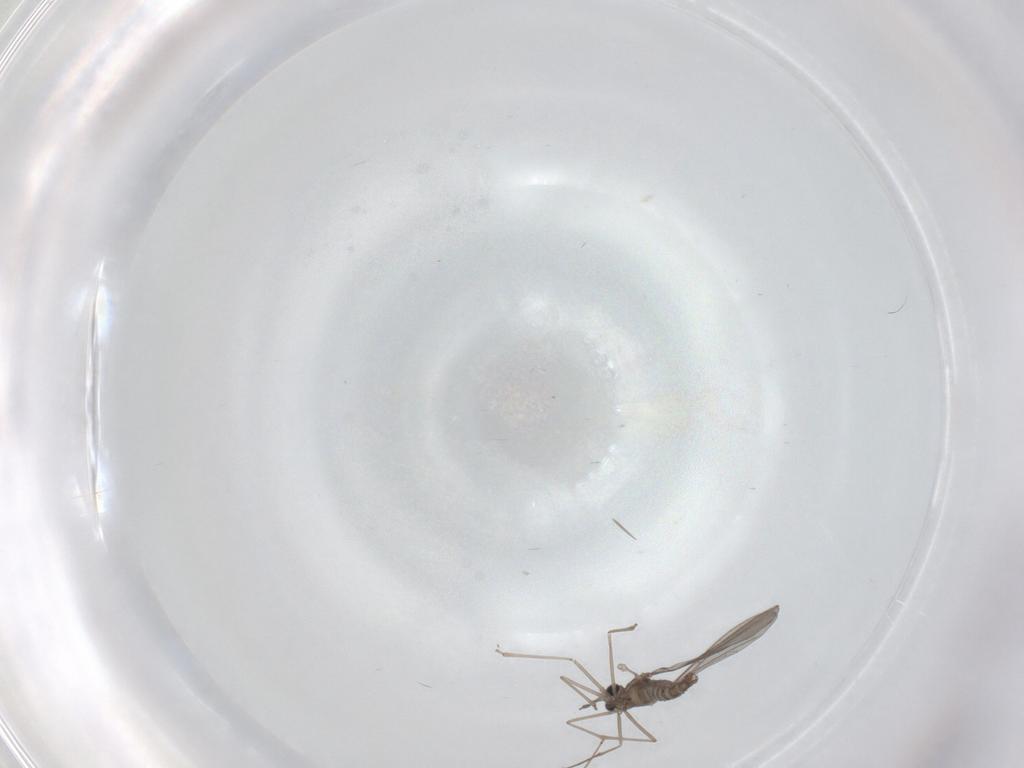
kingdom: Animalia
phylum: Arthropoda
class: Insecta
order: Diptera
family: Cecidomyiidae
